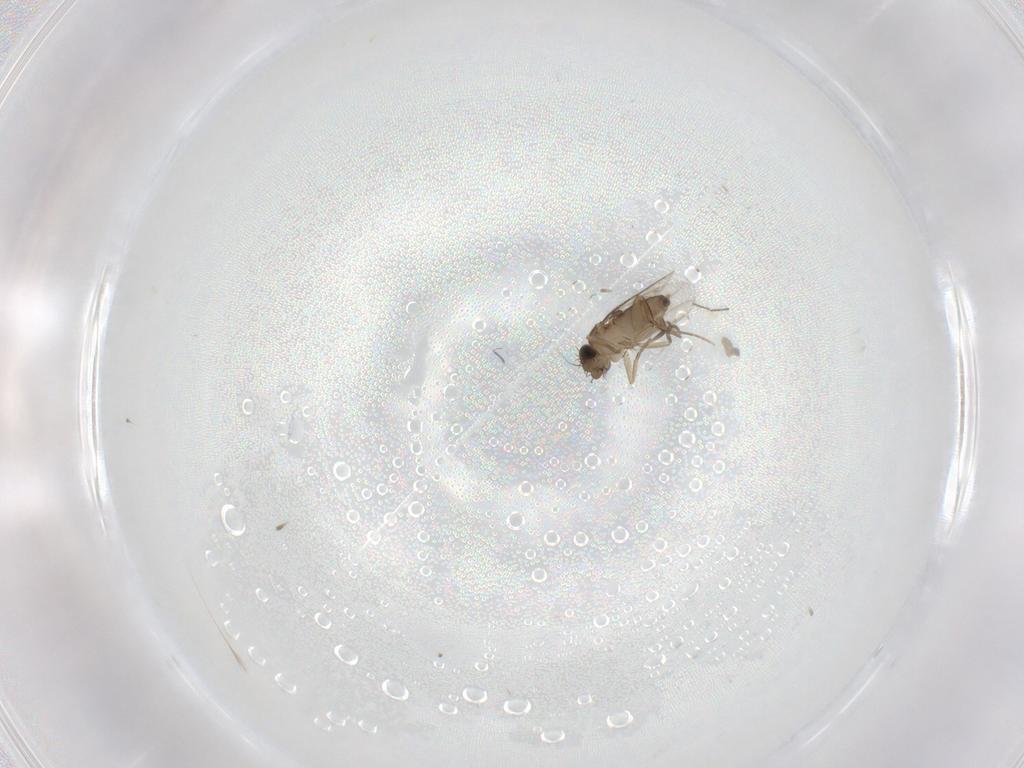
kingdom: Animalia
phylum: Arthropoda
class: Insecta
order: Diptera
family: Phoridae
